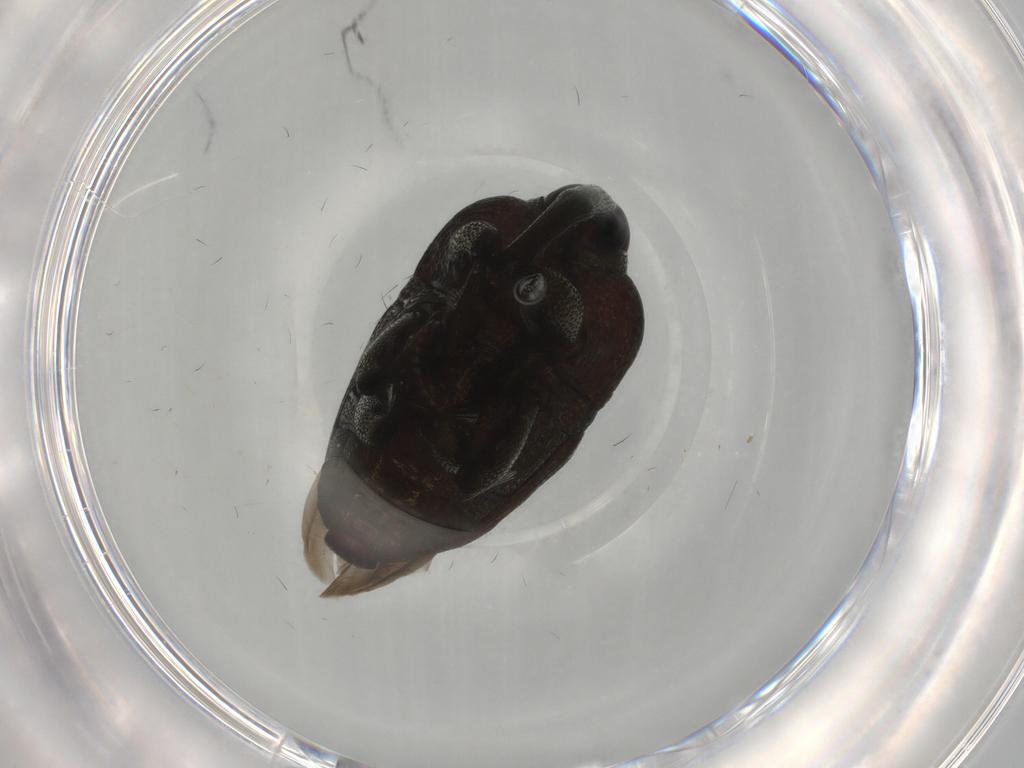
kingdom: Animalia
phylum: Arthropoda
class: Insecta
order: Coleoptera
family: Curculionidae
